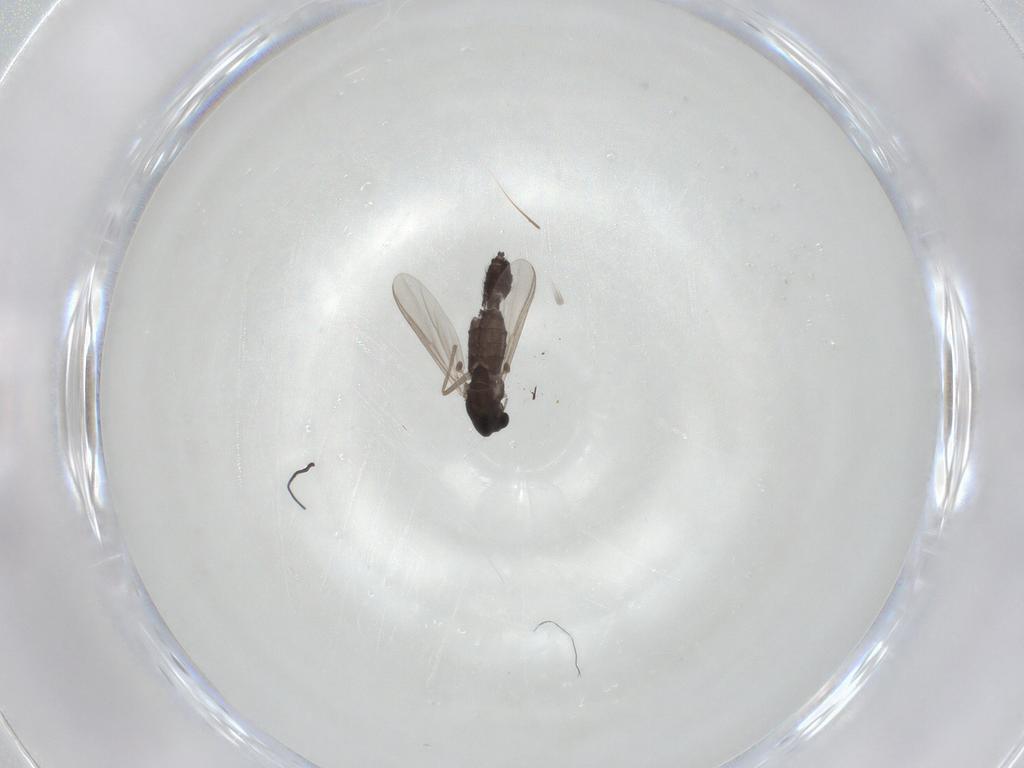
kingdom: Animalia
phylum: Arthropoda
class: Insecta
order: Diptera
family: Chironomidae
